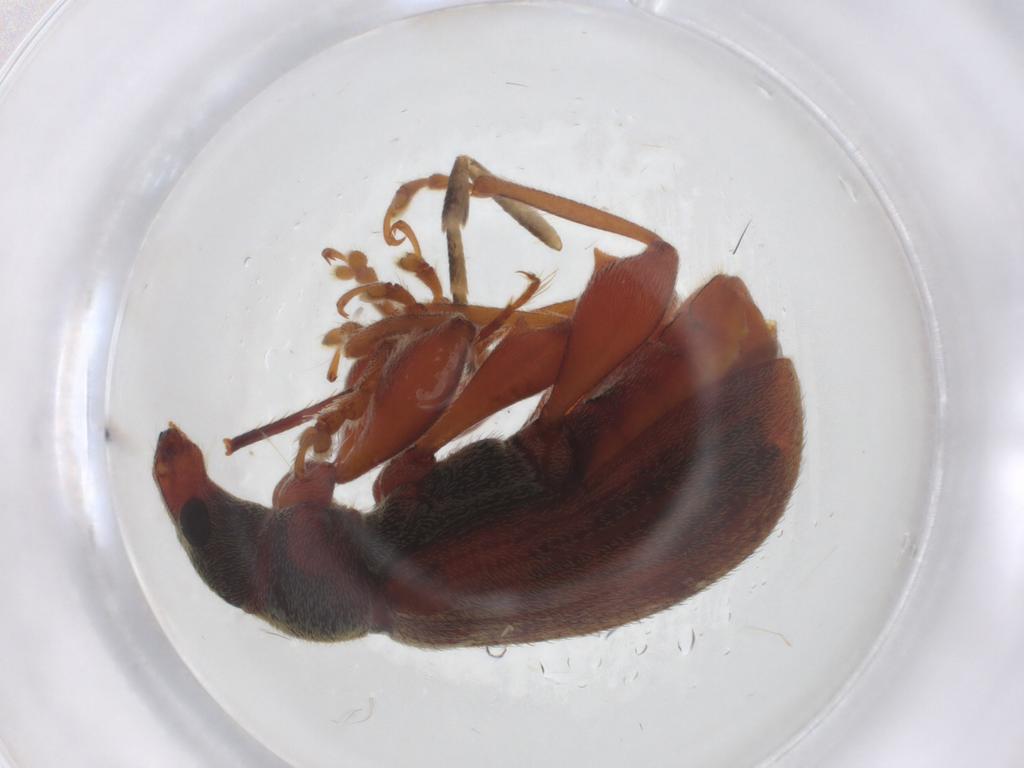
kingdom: Animalia
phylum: Arthropoda
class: Insecta
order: Coleoptera
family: Curculionidae
